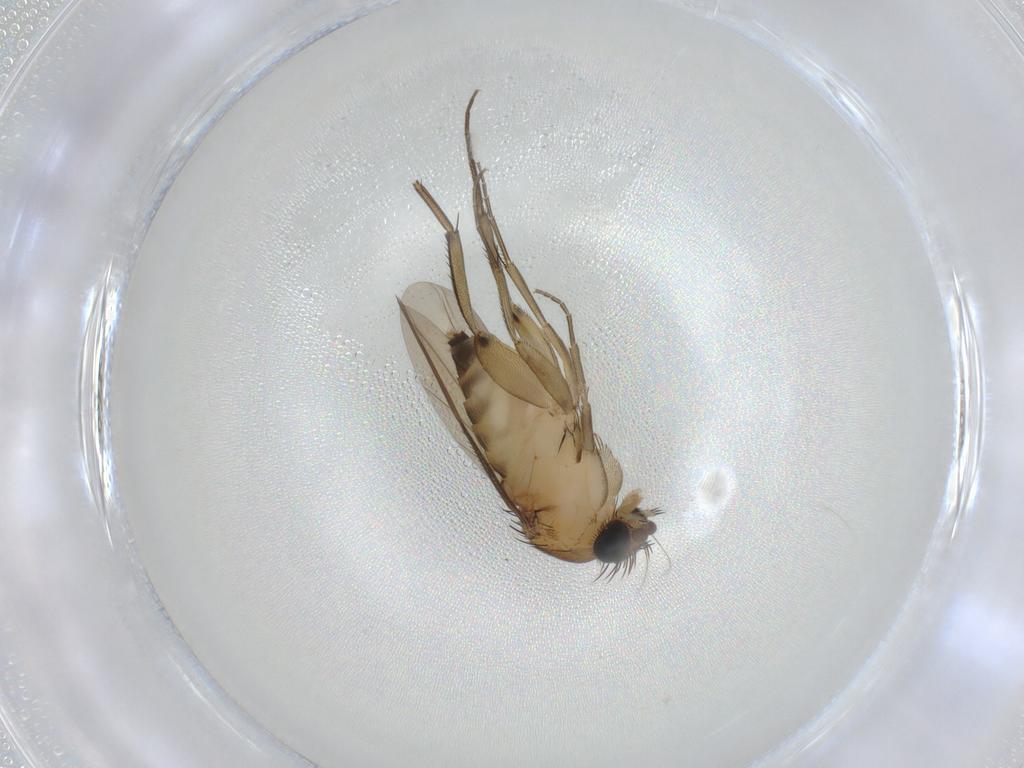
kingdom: Animalia
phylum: Arthropoda
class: Insecta
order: Diptera
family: Phoridae
